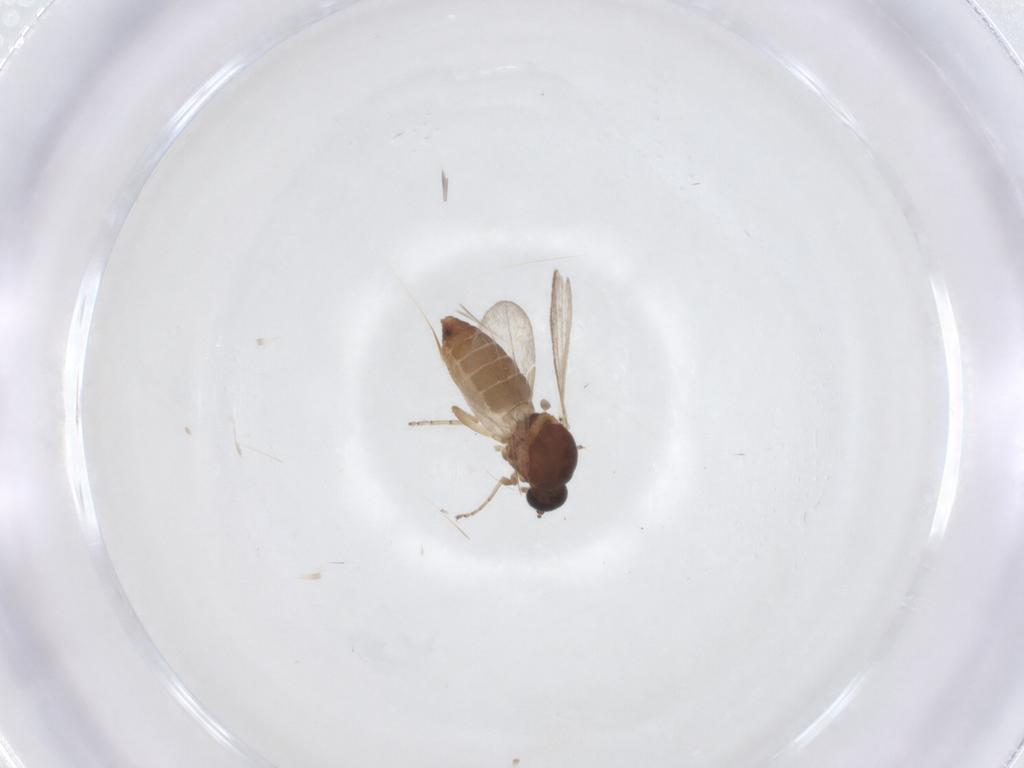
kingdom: Animalia
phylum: Arthropoda
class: Insecta
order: Diptera
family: Ceratopogonidae
